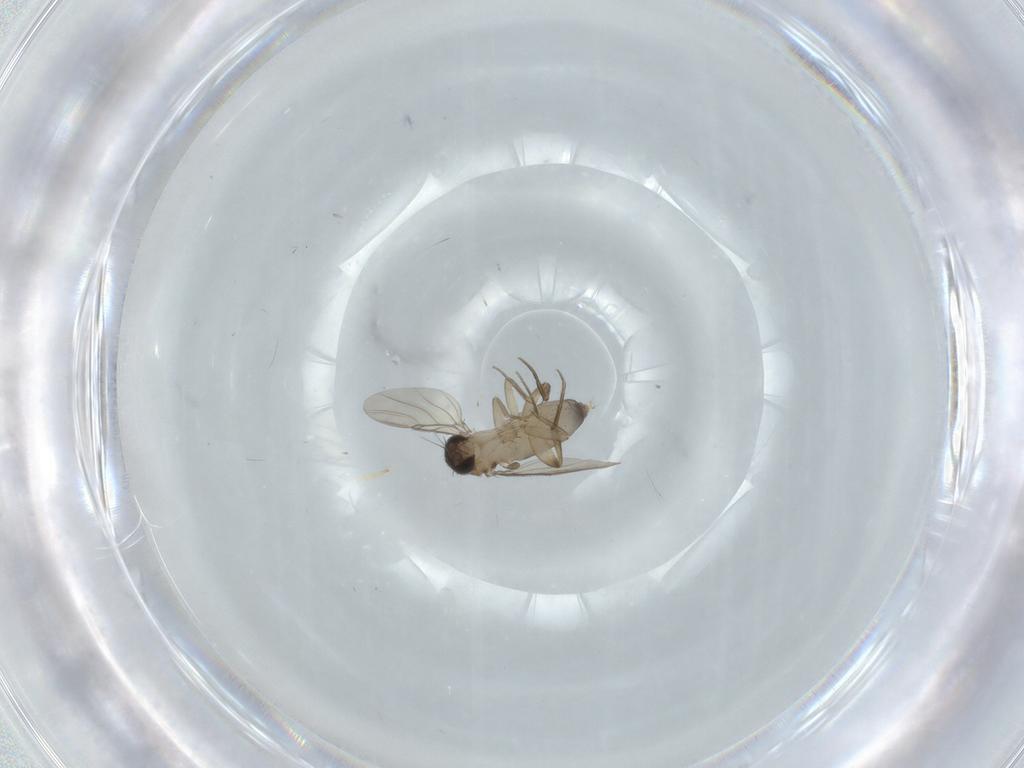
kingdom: Animalia
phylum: Arthropoda
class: Insecta
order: Diptera
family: Phoridae
